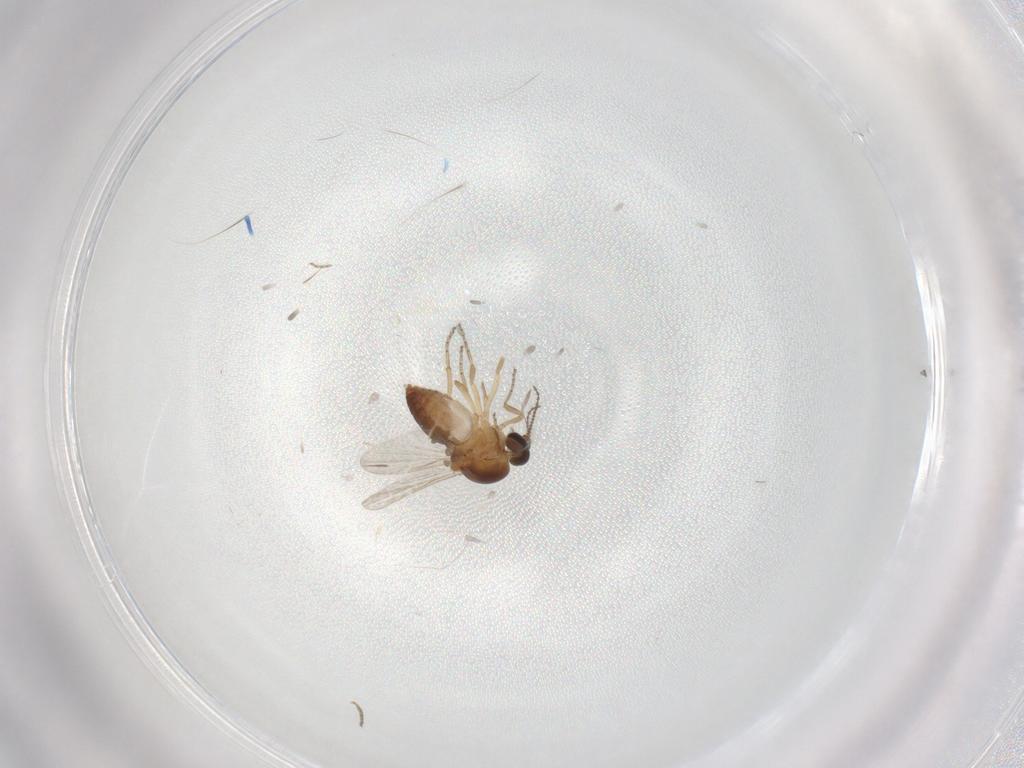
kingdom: Animalia
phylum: Arthropoda
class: Insecta
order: Diptera
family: Ceratopogonidae
